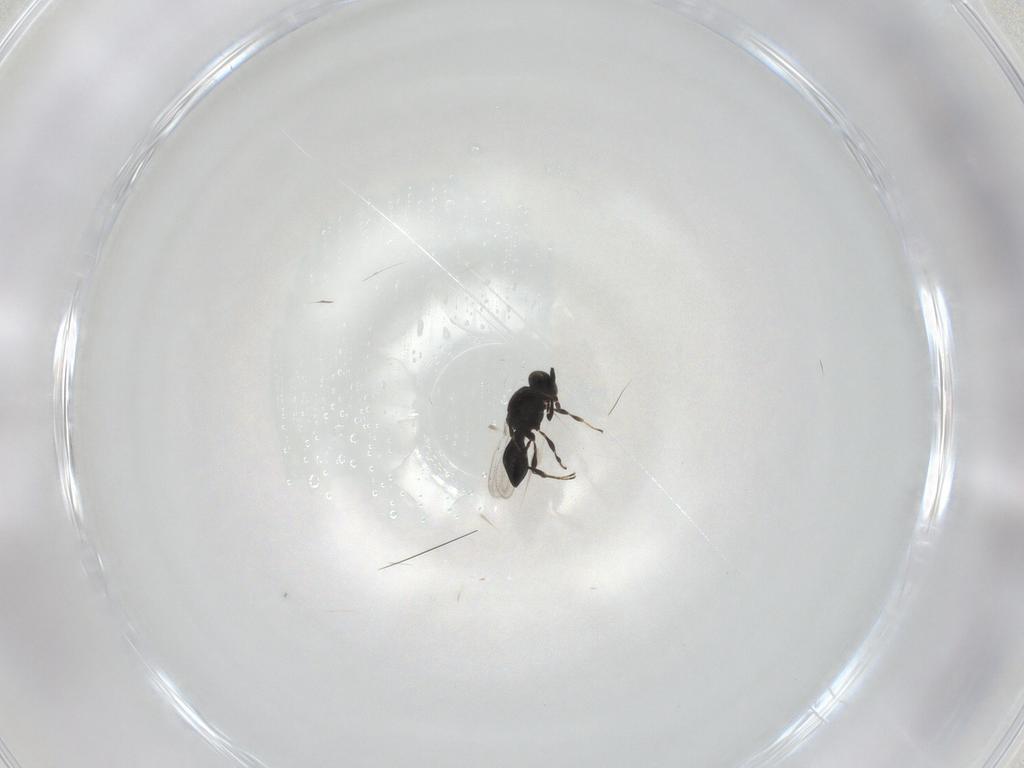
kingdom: Animalia
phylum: Arthropoda
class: Insecta
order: Hymenoptera
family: Platygastridae
